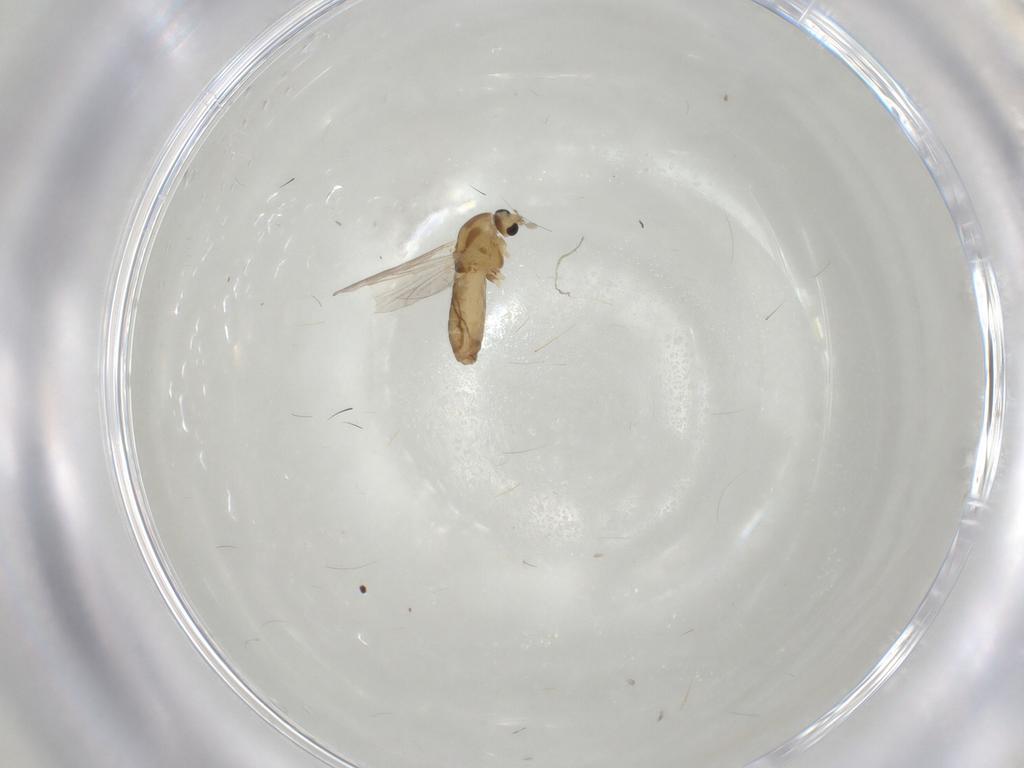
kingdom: Animalia
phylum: Arthropoda
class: Insecta
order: Diptera
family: Chironomidae
